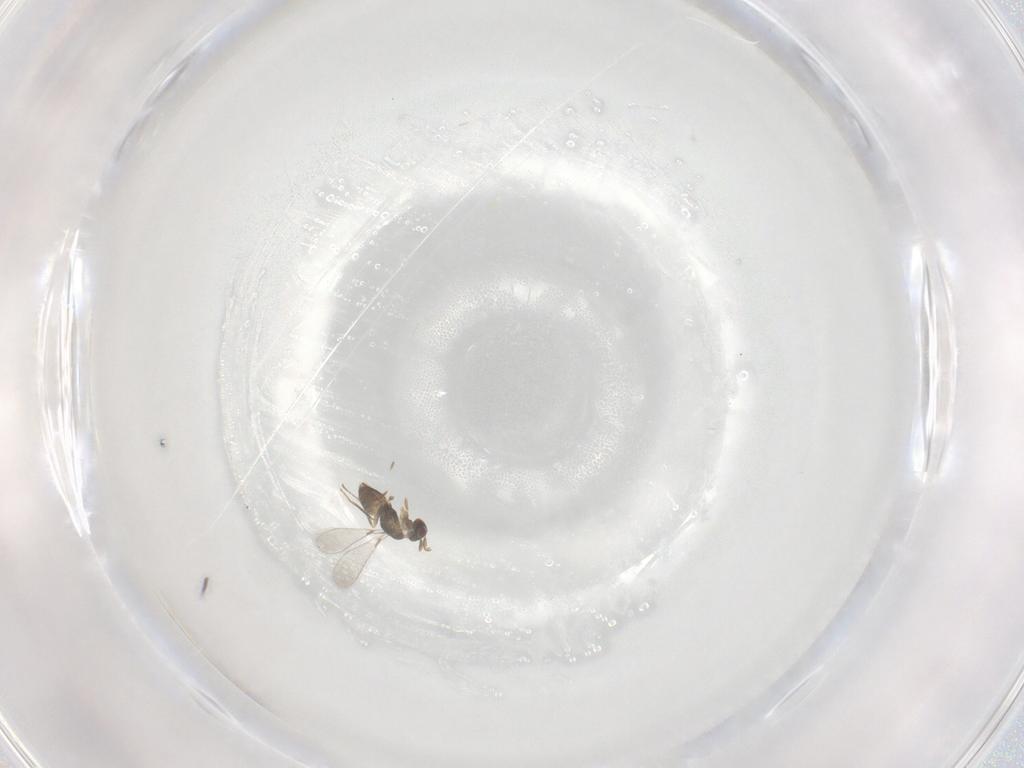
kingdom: Animalia
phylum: Arthropoda
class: Insecta
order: Hymenoptera
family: Mymaridae
